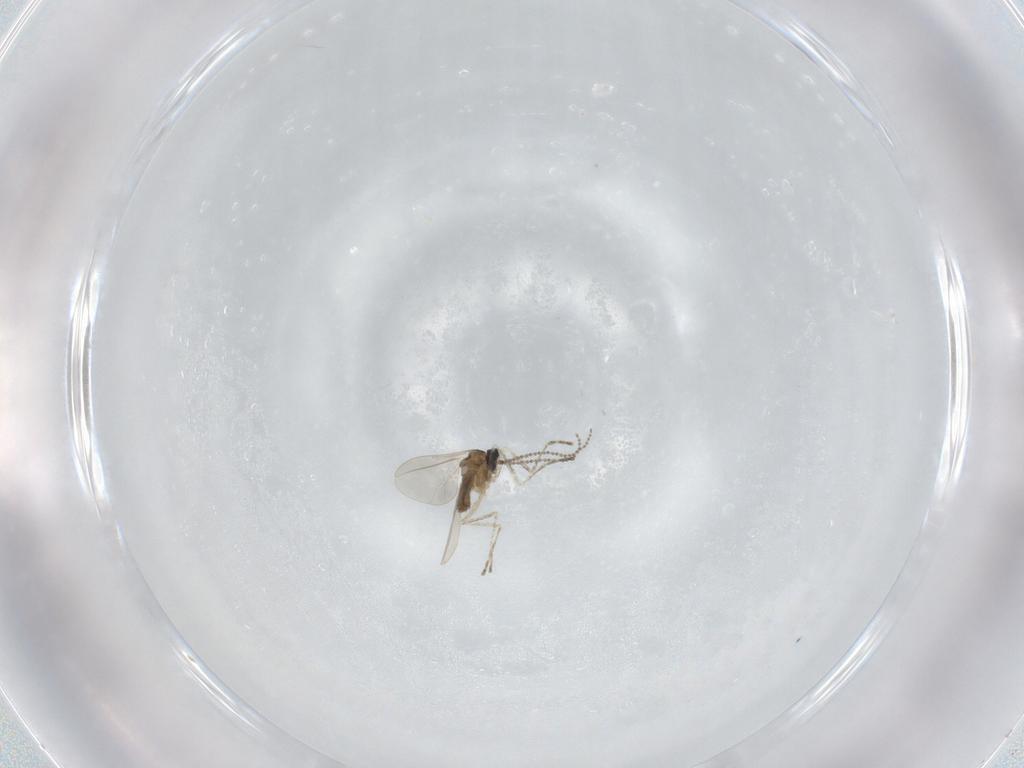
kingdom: Animalia
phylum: Arthropoda
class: Insecta
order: Diptera
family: Cecidomyiidae
